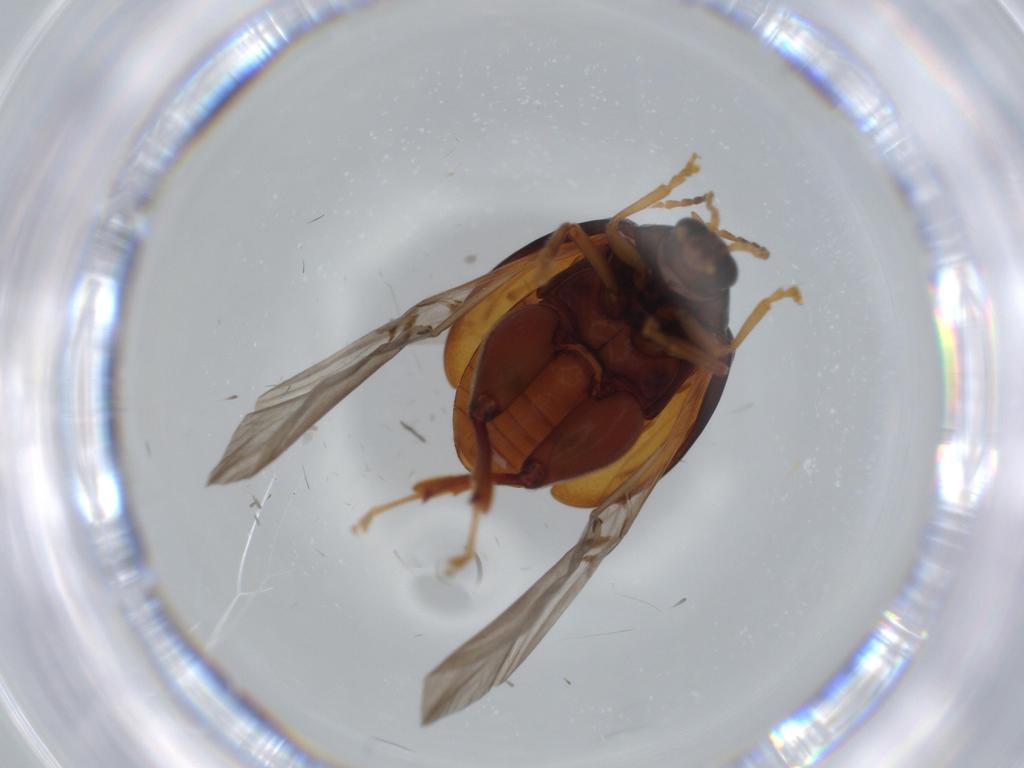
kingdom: Animalia
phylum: Arthropoda
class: Insecta
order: Coleoptera
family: Chrysomelidae
